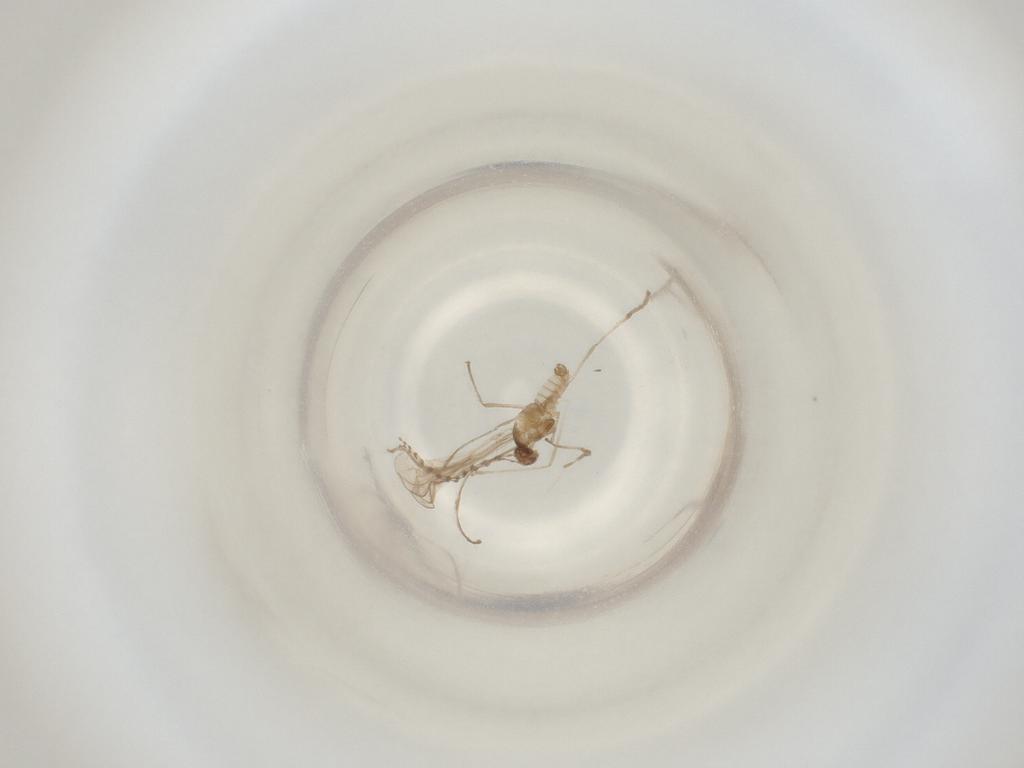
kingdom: Animalia
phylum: Arthropoda
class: Insecta
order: Diptera
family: Cecidomyiidae
